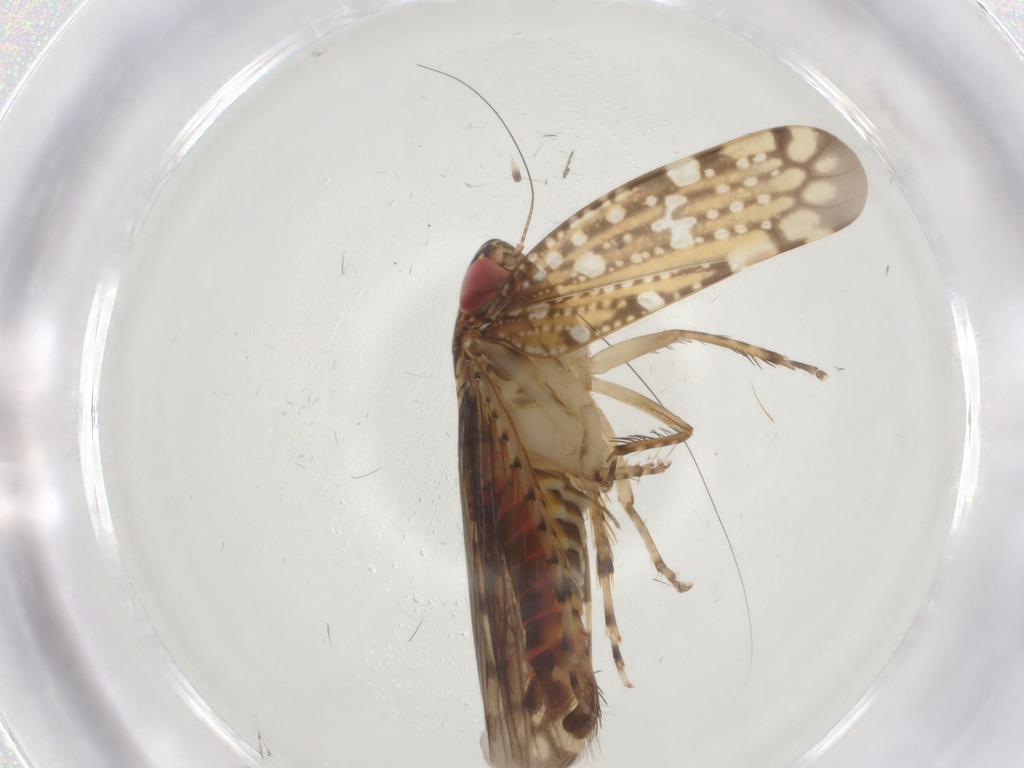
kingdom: Animalia
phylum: Arthropoda
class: Insecta
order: Hemiptera
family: Cicadellidae
